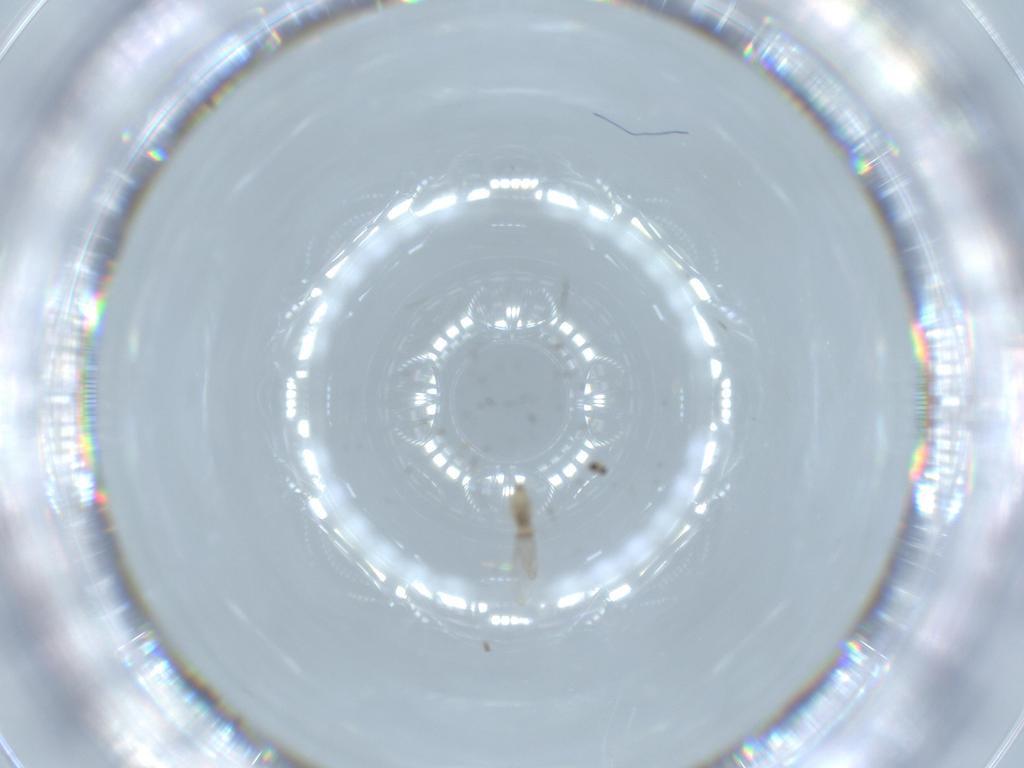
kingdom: Animalia
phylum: Arthropoda
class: Insecta
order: Diptera
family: Cecidomyiidae
